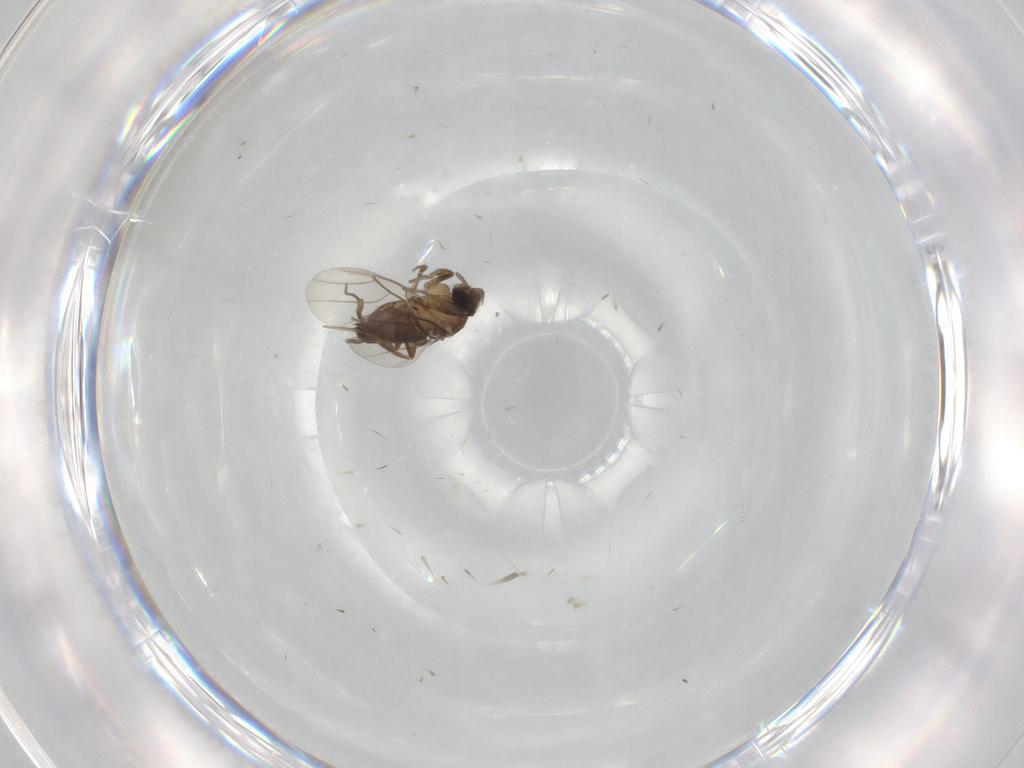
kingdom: Animalia
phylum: Arthropoda
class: Insecta
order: Diptera
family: Phoridae
